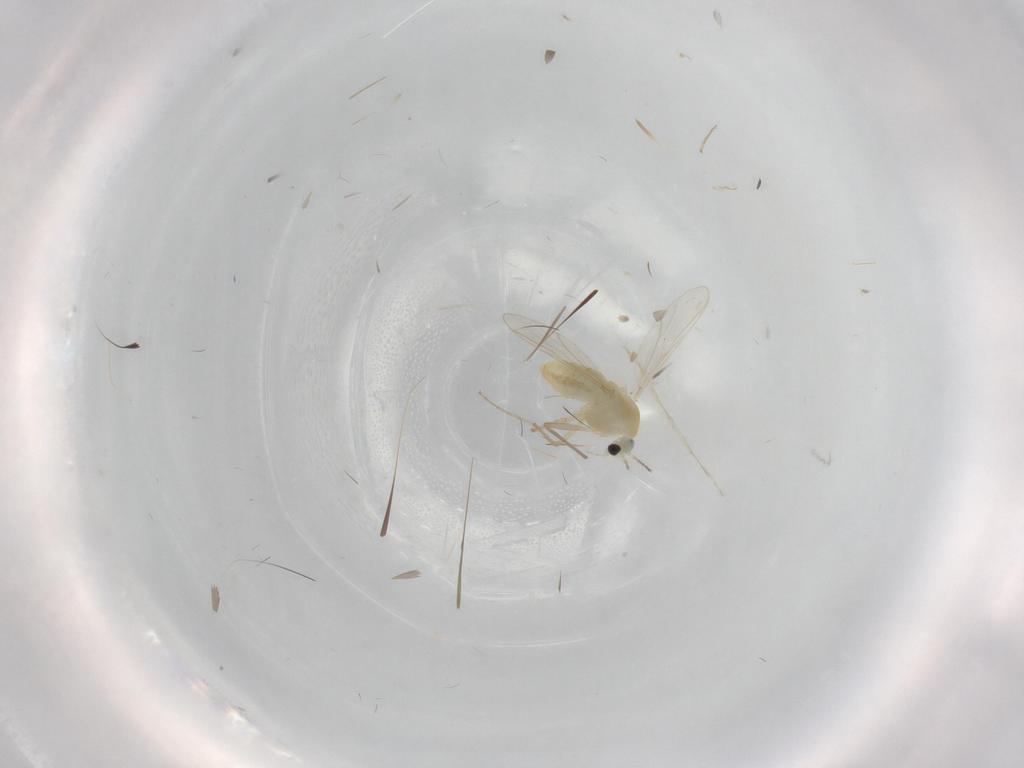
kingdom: Animalia
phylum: Arthropoda
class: Insecta
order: Diptera
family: Chironomidae
